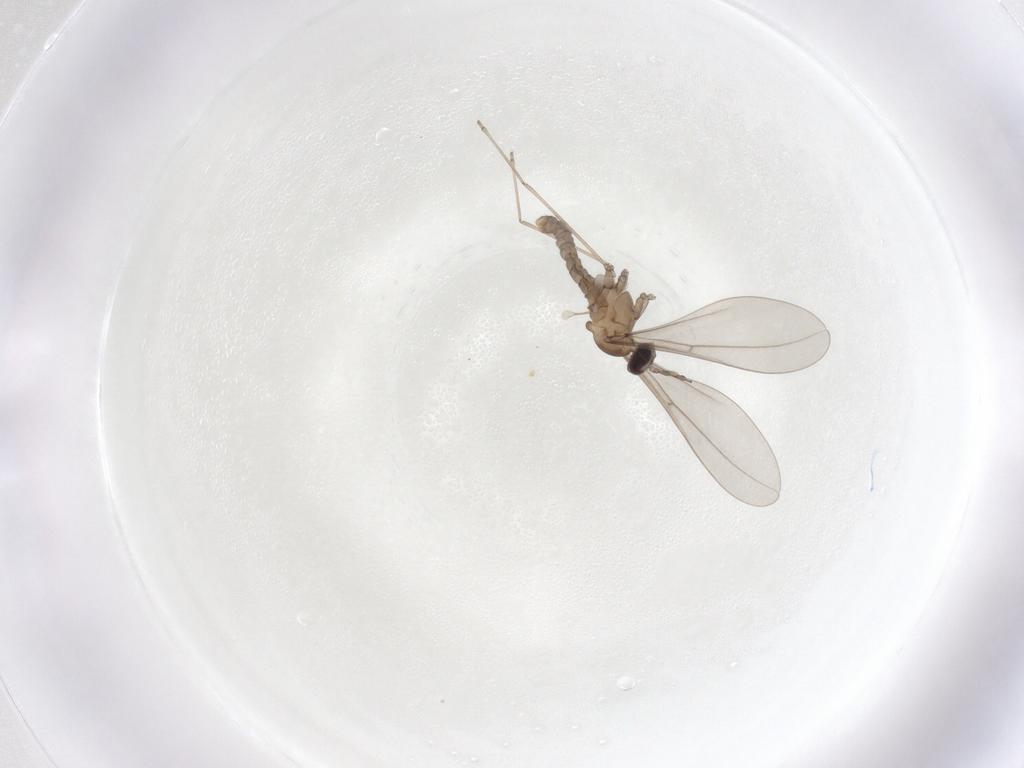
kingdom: Animalia
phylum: Arthropoda
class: Insecta
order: Diptera
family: Cecidomyiidae
